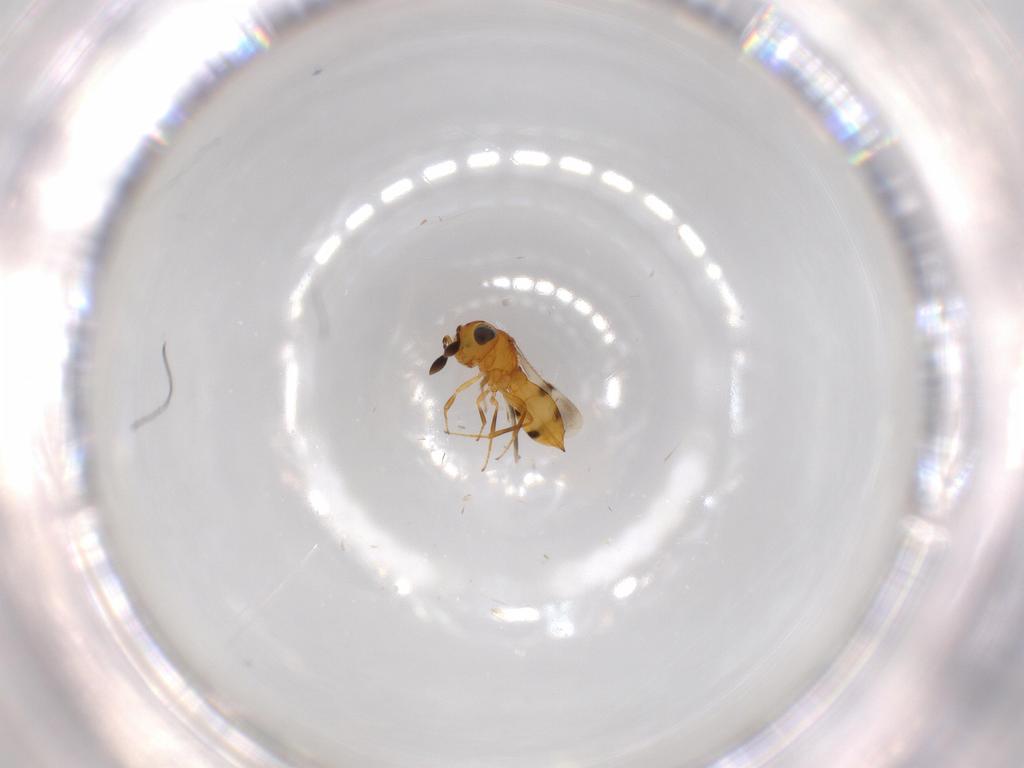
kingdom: Animalia
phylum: Arthropoda
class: Insecta
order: Hymenoptera
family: Scelionidae
